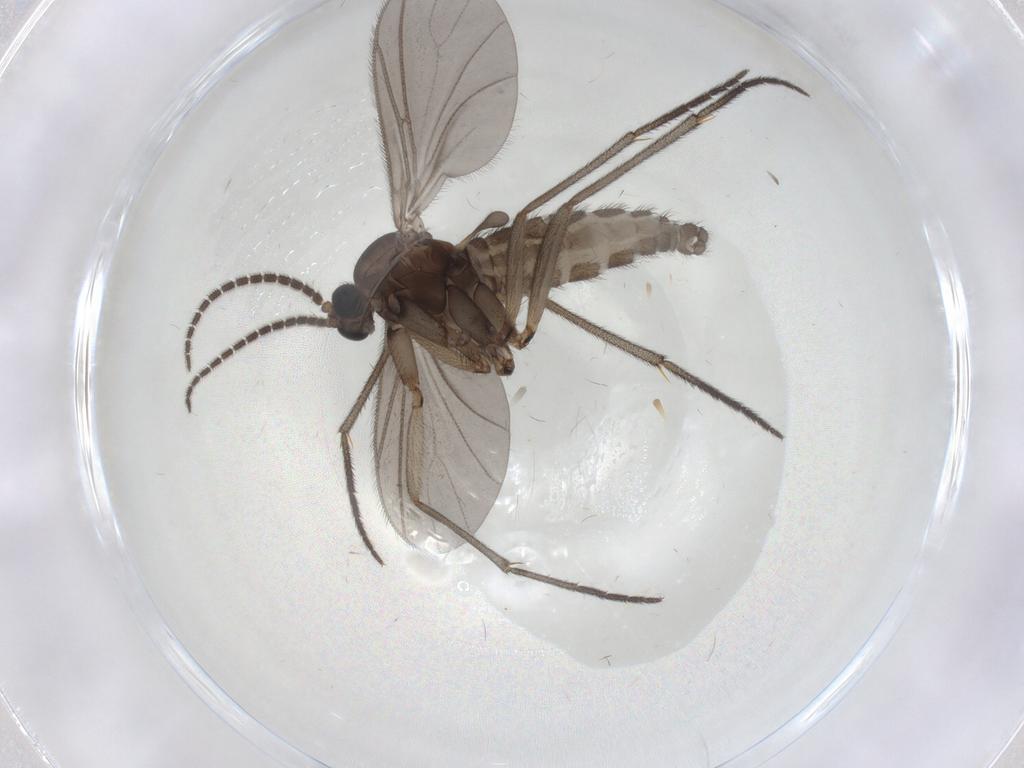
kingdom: Animalia
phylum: Arthropoda
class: Insecta
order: Diptera
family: Sciaridae
